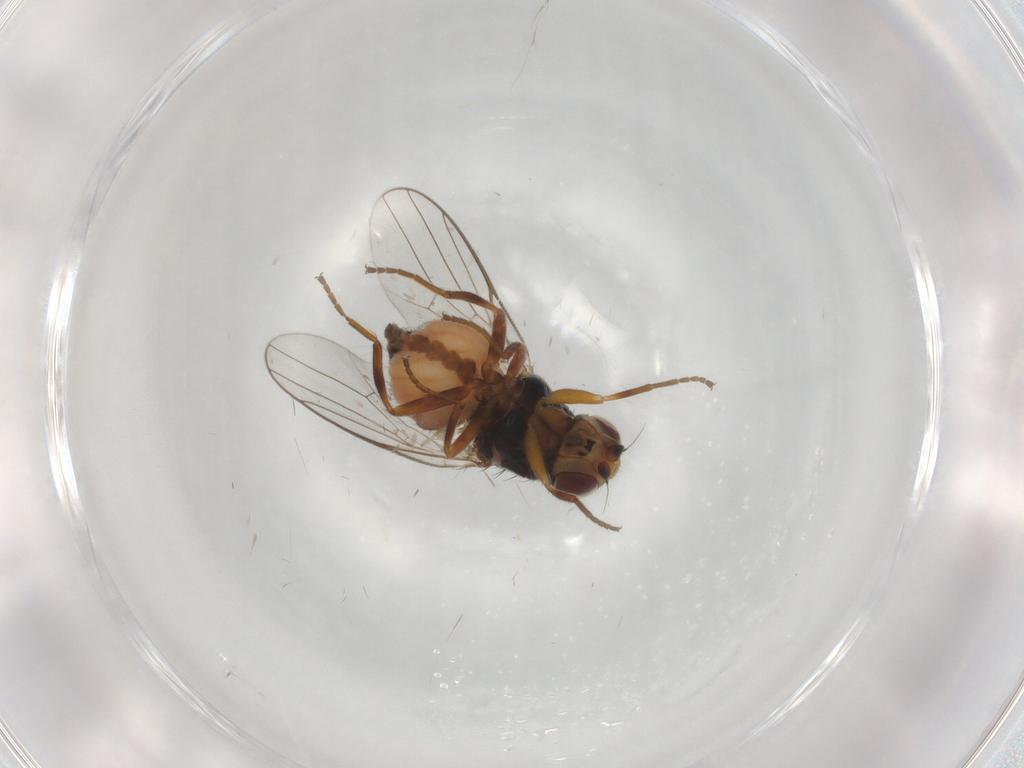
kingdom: Animalia
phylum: Arthropoda
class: Insecta
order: Diptera
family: Chloropidae
